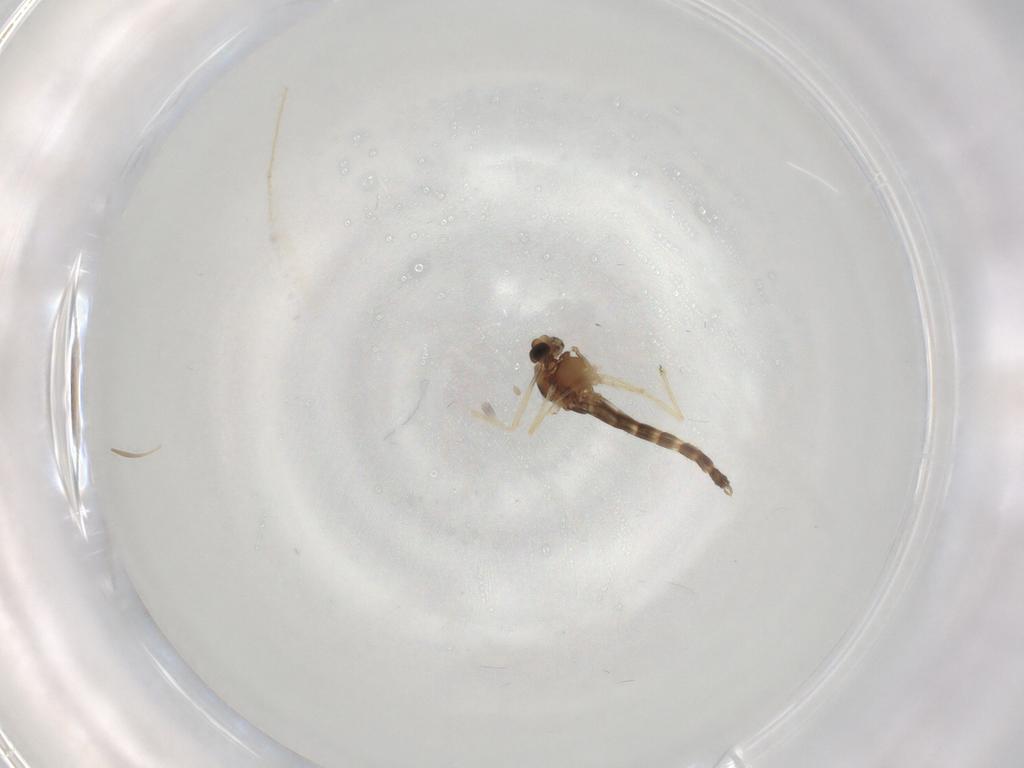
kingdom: Animalia
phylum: Arthropoda
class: Insecta
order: Diptera
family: Chironomidae
